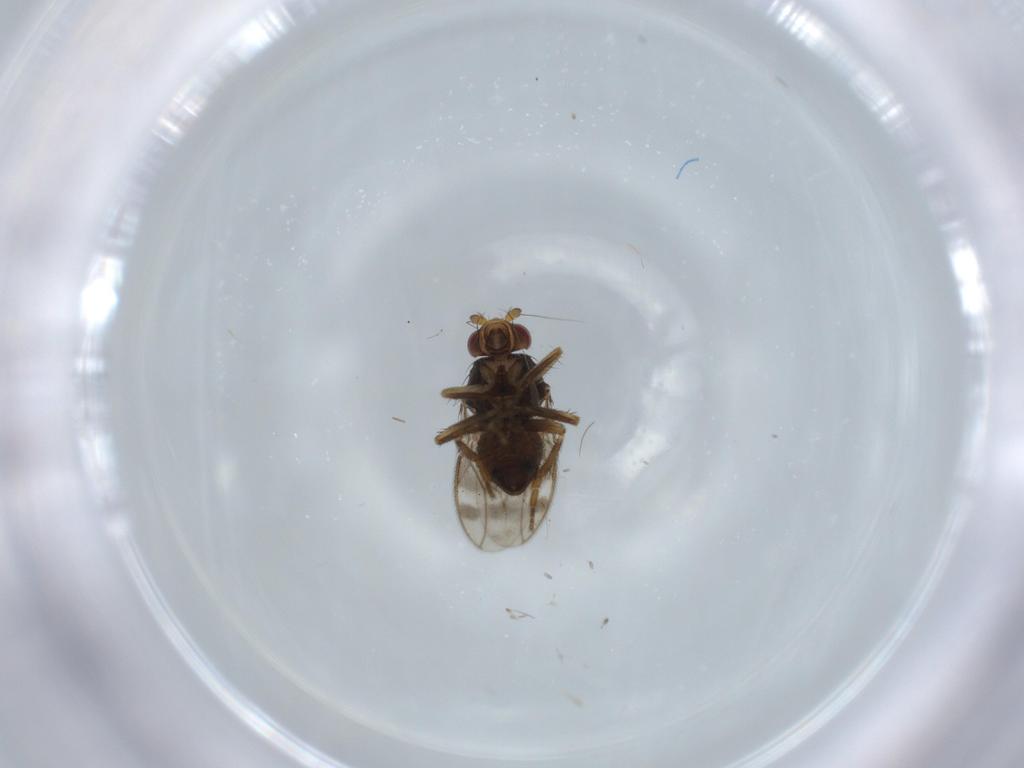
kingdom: Animalia
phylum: Arthropoda
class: Insecta
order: Diptera
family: Sphaeroceridae
